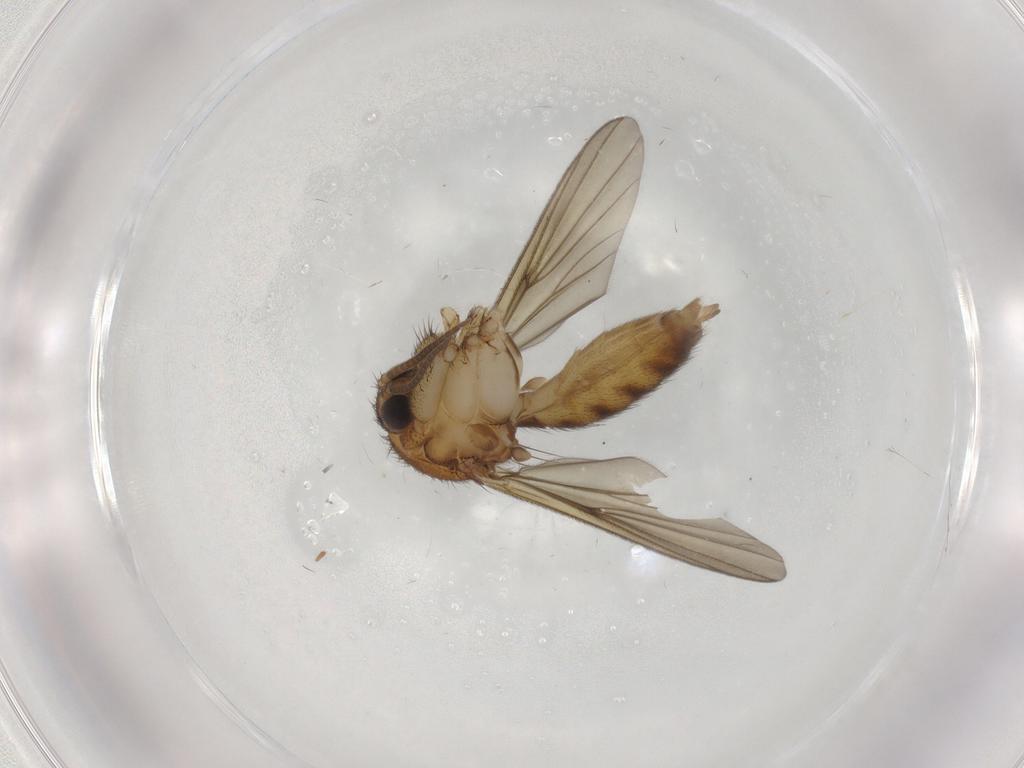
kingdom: Animalia
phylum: Arthropoda
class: Insecta
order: Diptera
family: Mycetophilidae
